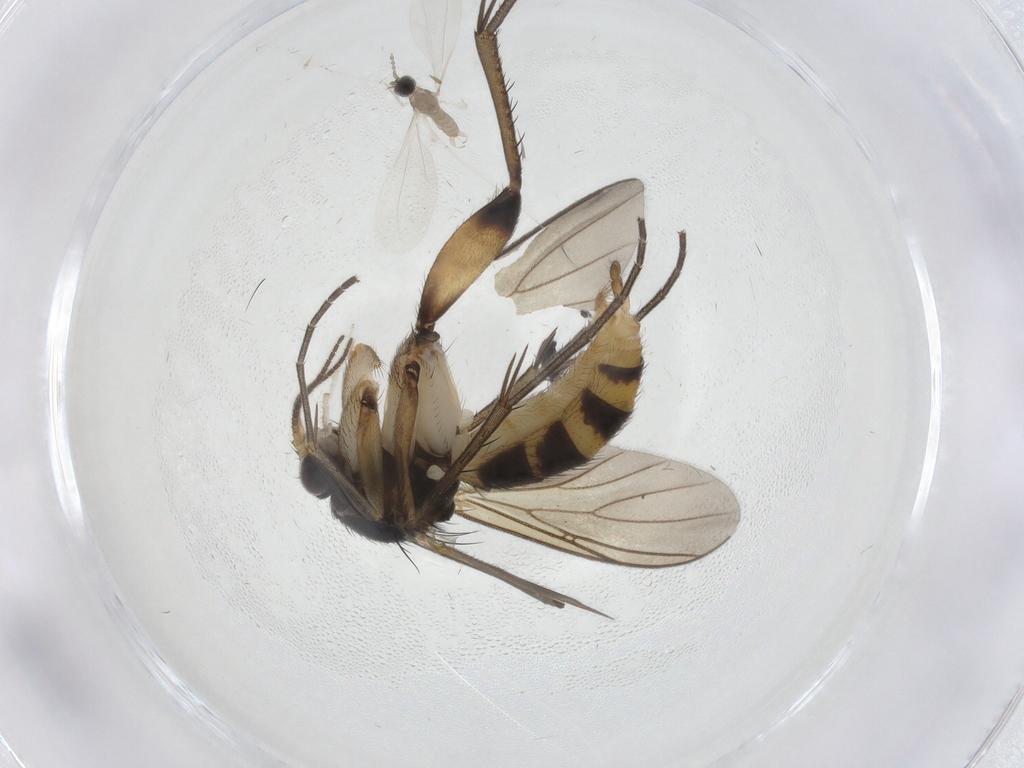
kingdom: Animalia
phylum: Arthropoda
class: Insecta
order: Diptera
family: Mycetophilidae
